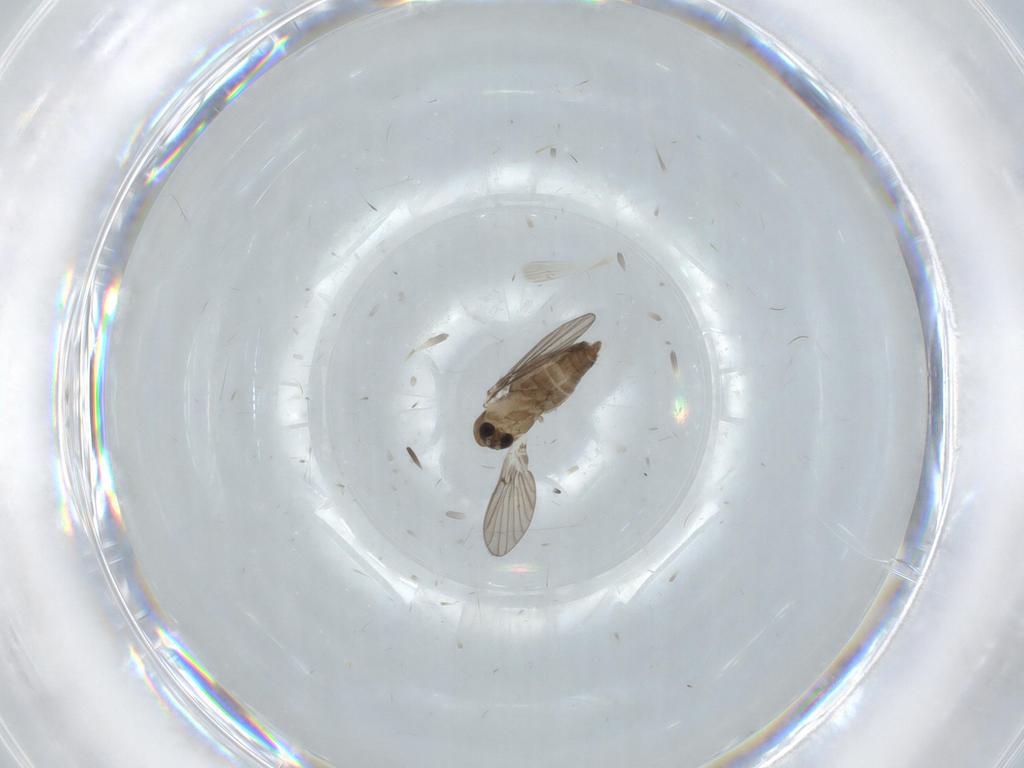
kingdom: Animalia
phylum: Arthropoda
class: Insecta
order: Diptera
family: Psychodidae
